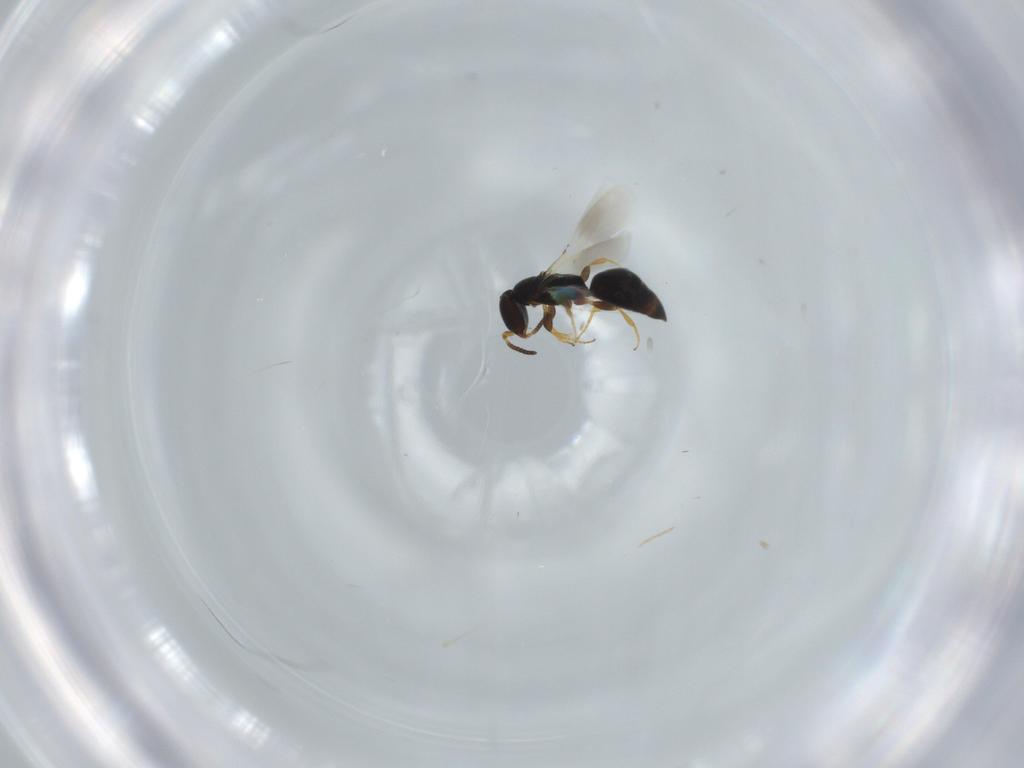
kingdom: Animalia
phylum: Arthropoda
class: Insecta
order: Hymenoptera
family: Bethylidae
